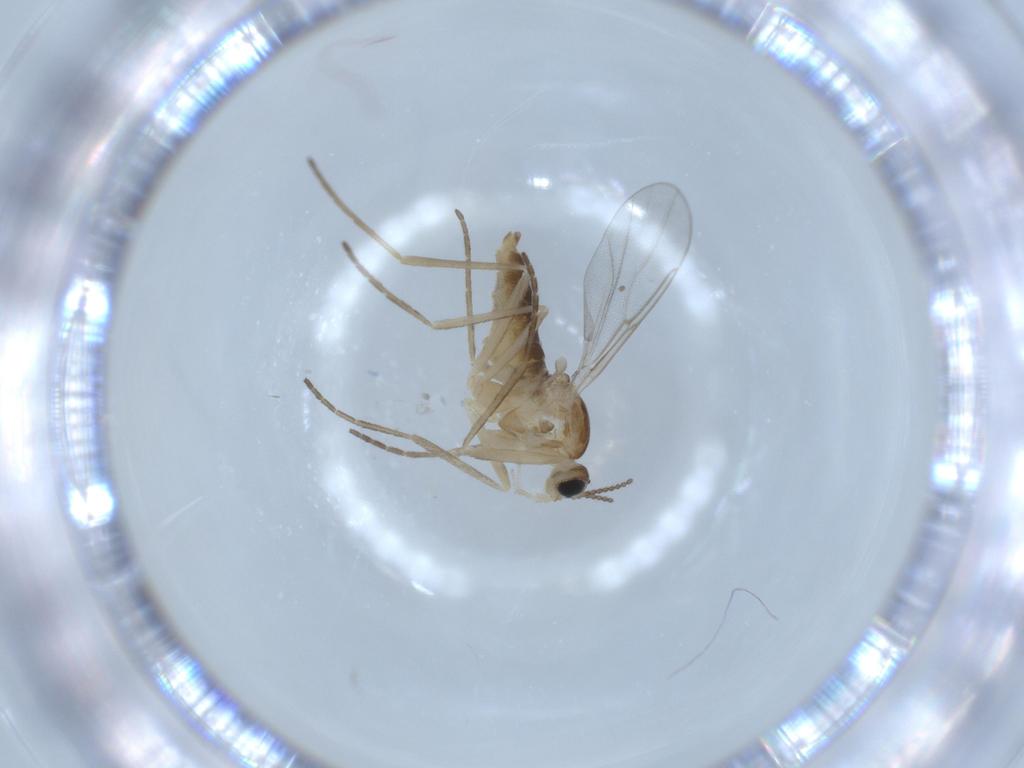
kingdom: Animalia
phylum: Arthropoda
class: Insecta
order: Diptera
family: Cecidomyiidae
